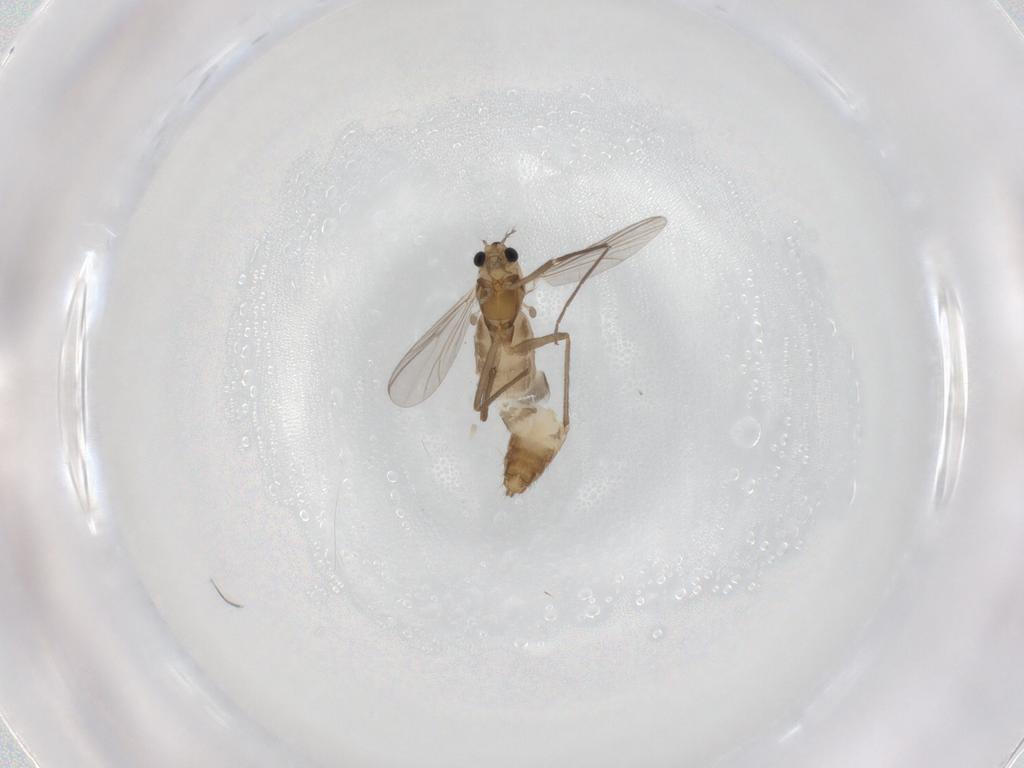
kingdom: Animalia
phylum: Arthropoda
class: Insecta
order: Diptera
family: Chironomidae
